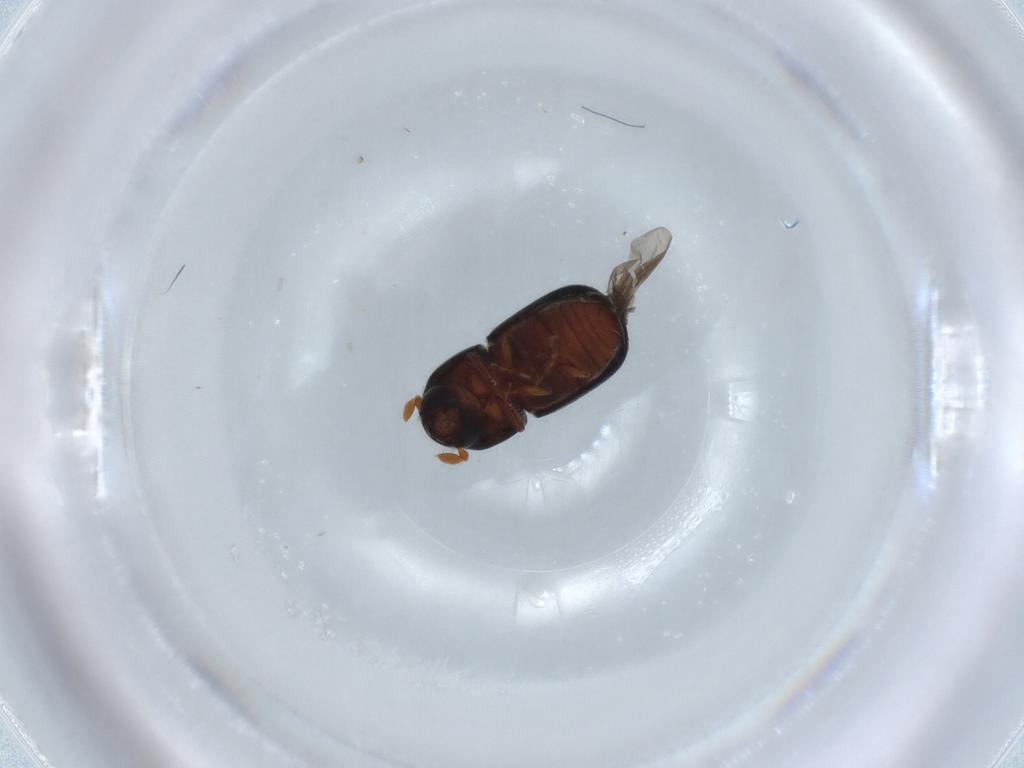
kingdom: Animalia
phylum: Arthropoda
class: Insecta
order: Coleoptera
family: Curculionidae
